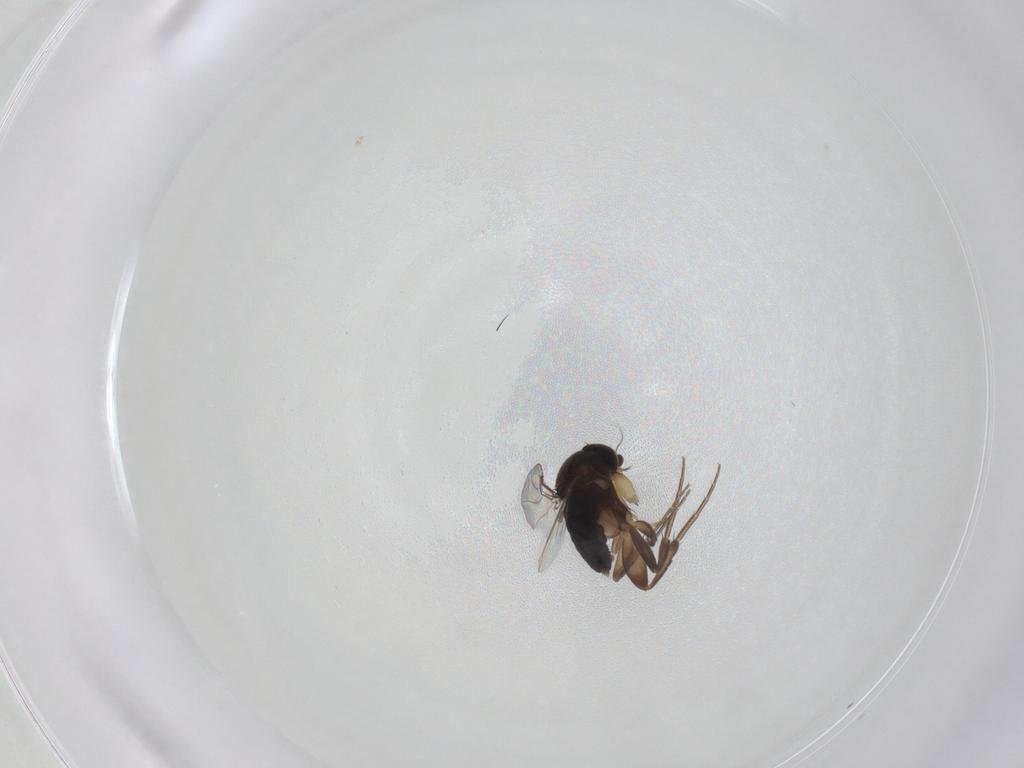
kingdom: Animalia
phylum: Arthropoda
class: Insecta
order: Diptera
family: Phoridae
